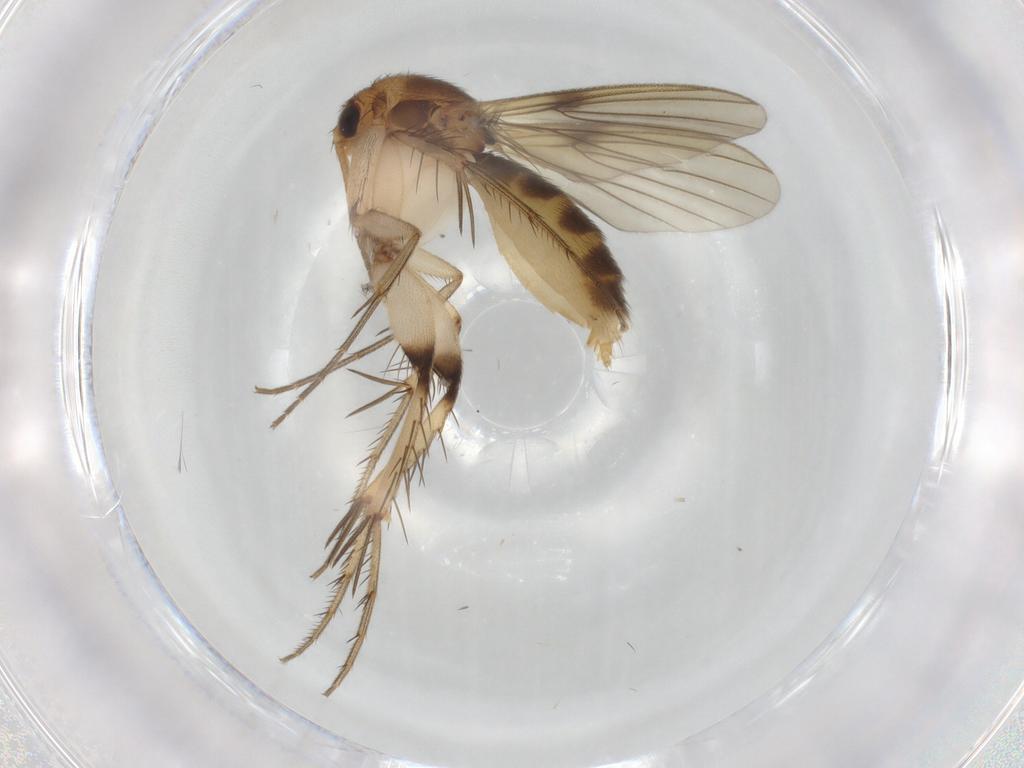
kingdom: Animalia
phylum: Arthropoda
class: Insecta
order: Diptera
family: Mycetophilidae
